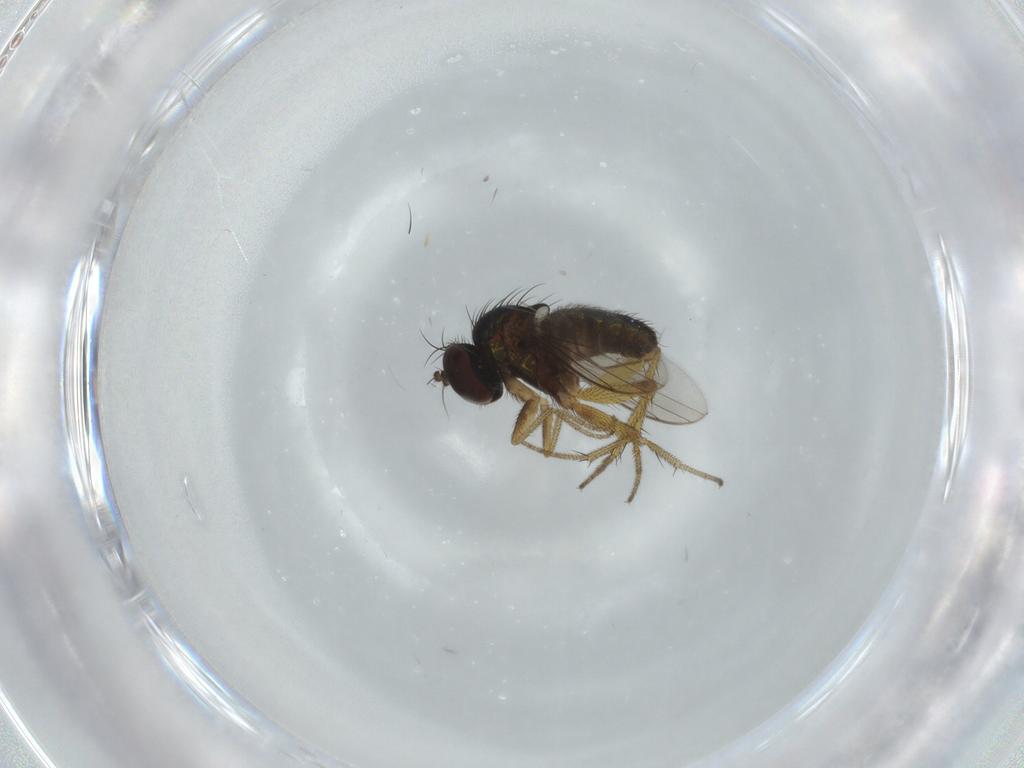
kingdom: Animalia
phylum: Arthropoda
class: Insecta
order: Diptera
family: Dolichopodidae
